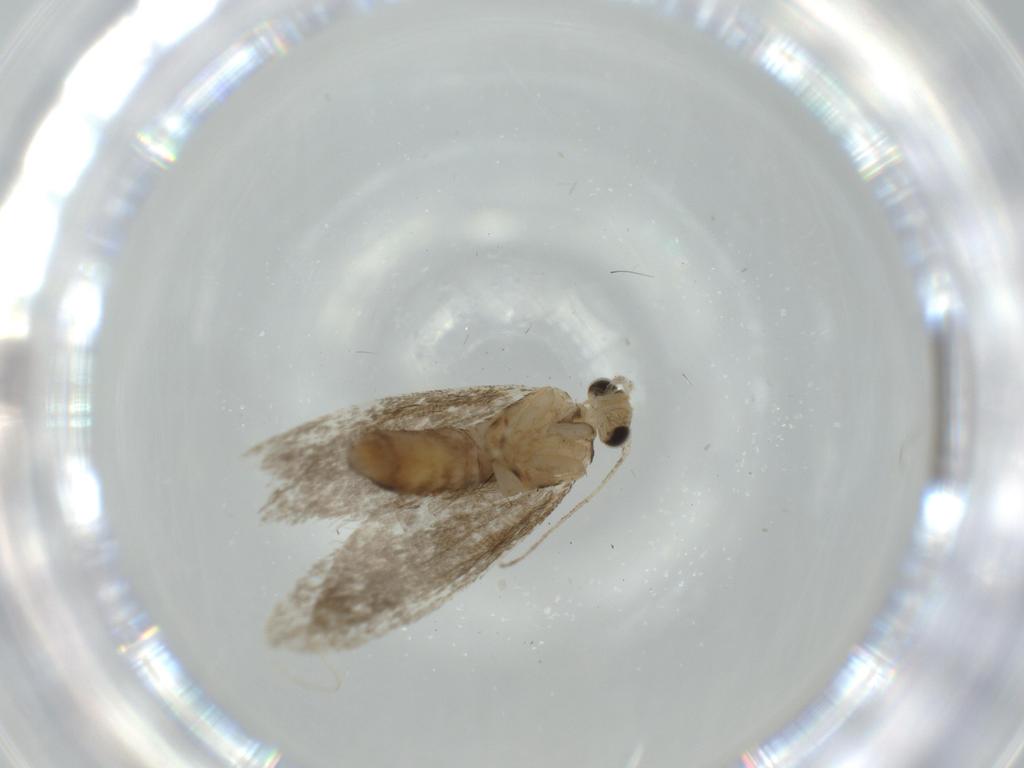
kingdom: Animalia
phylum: Arthropoda
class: Insecta
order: Lepidoptera
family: Tineidae
